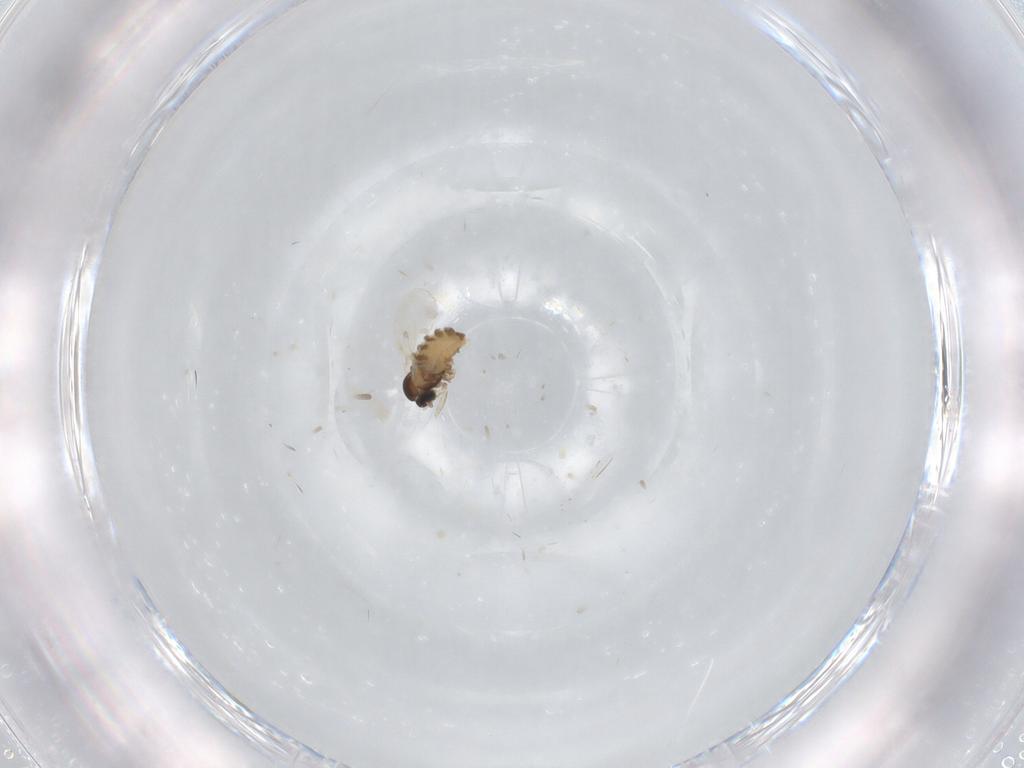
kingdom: Animalia
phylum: Arthropoda
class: Insecta
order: Diptera
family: Cecidomyiidae
